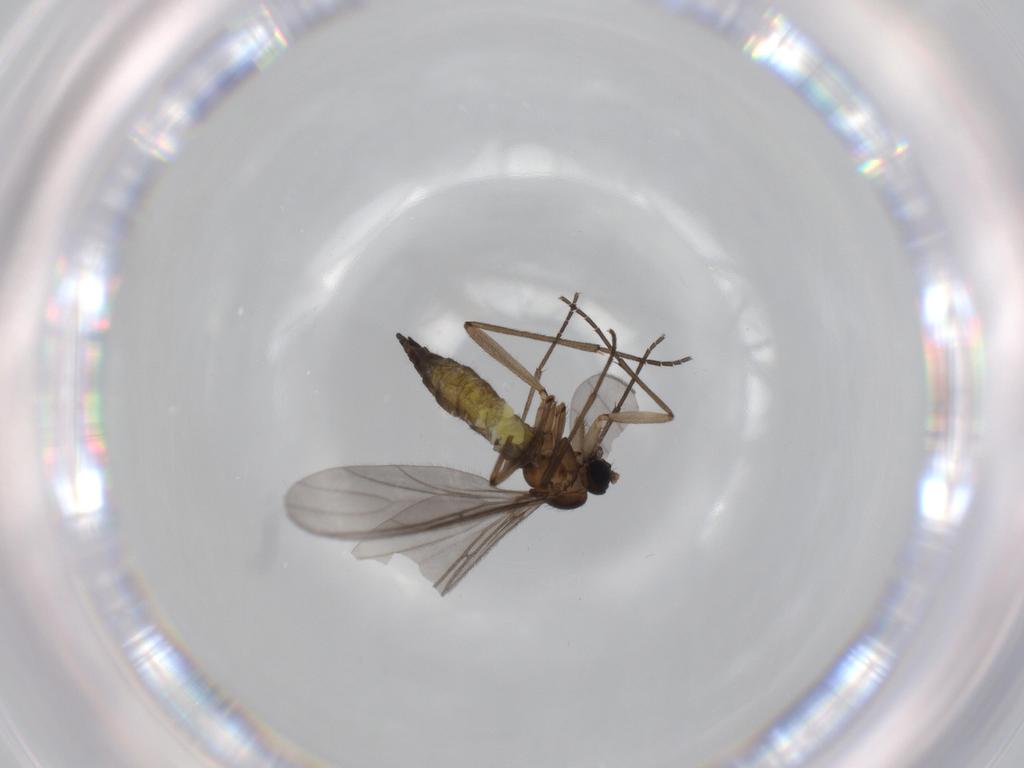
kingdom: Animalia
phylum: Arthropoda
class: Insecta
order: Diptera
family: Sciaridae
